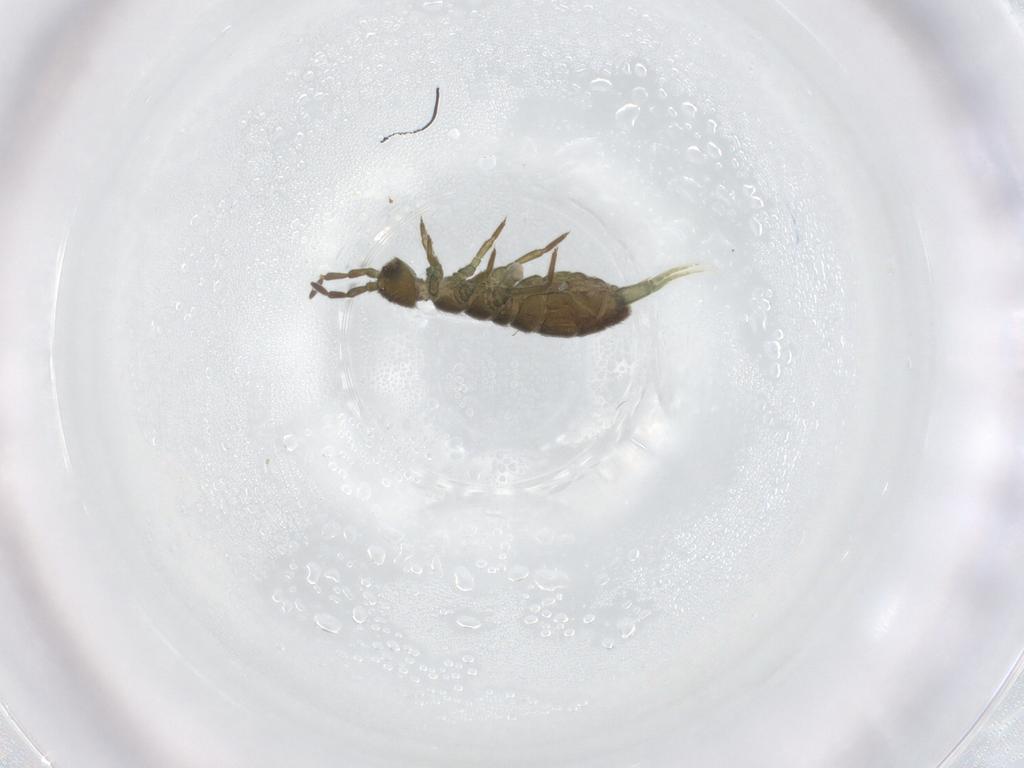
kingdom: Animalia
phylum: Arthropoda
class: Collembola
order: Entomobryomorpha
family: Isotomidae
